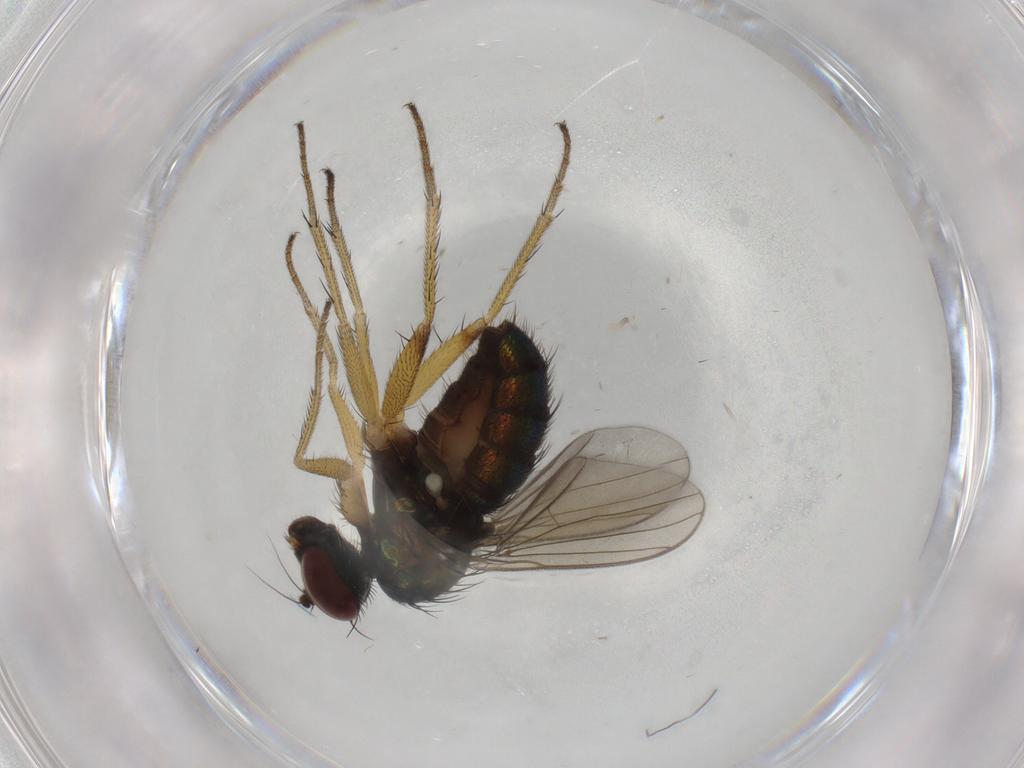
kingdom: Animalia
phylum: Arthropoda
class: Insecta
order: Diptera
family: Dolichopodidae
